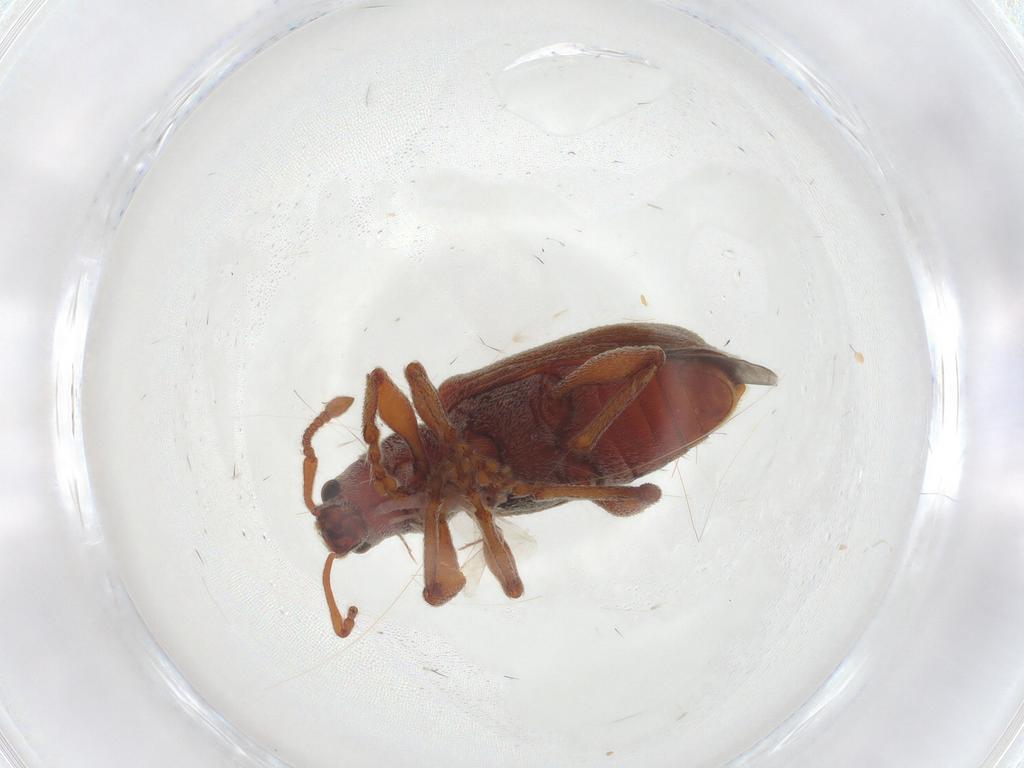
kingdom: Animalia
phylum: Arthropoda
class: Insecta
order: Coleoptera
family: Curculionidae
